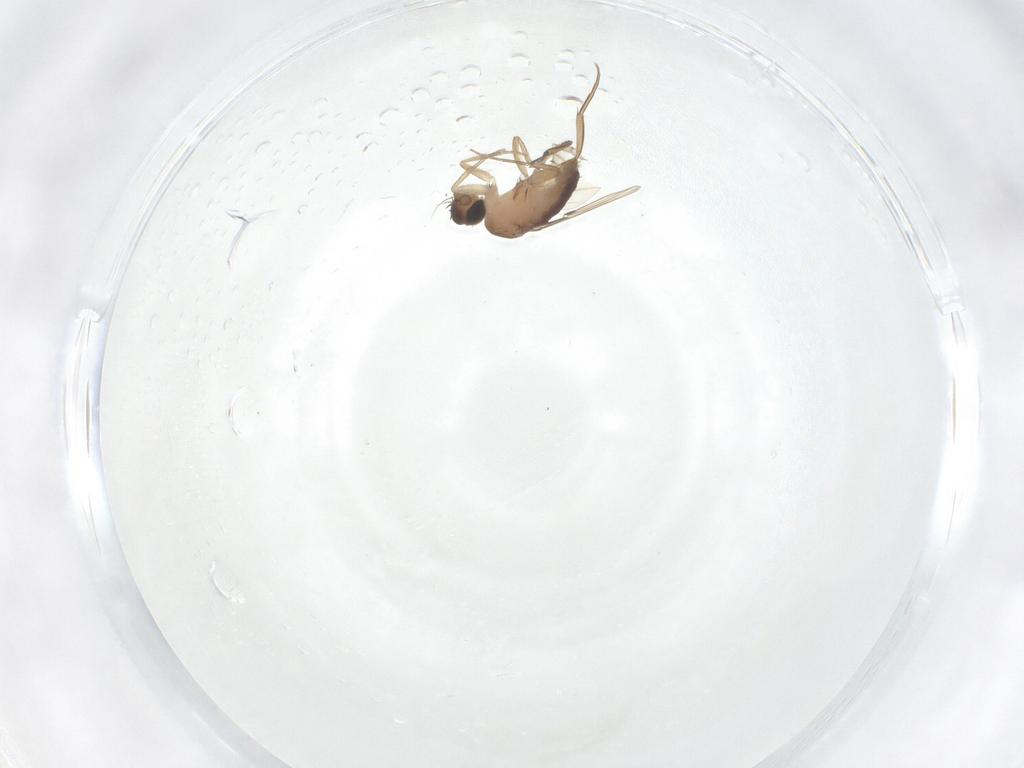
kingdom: Animalia
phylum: Arthropoda
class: Insecta
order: Diptera
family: Phoridae
